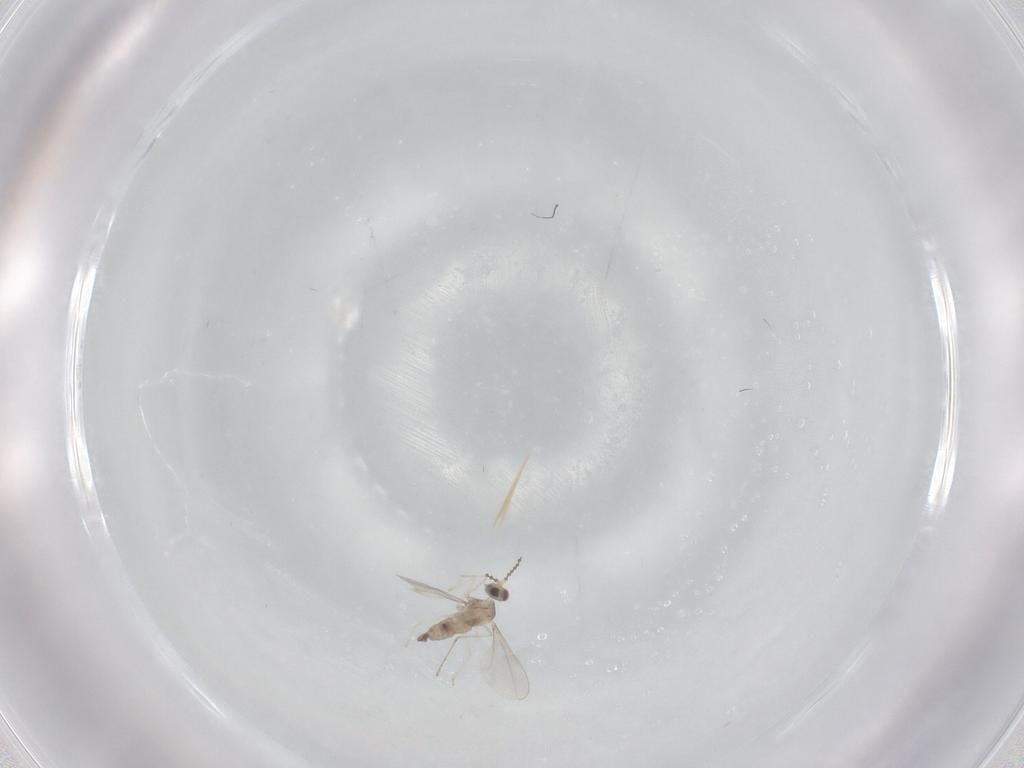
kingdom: Animalia
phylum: Arthropoda
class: Insecta
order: Diptera
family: Cecidomyiidae
